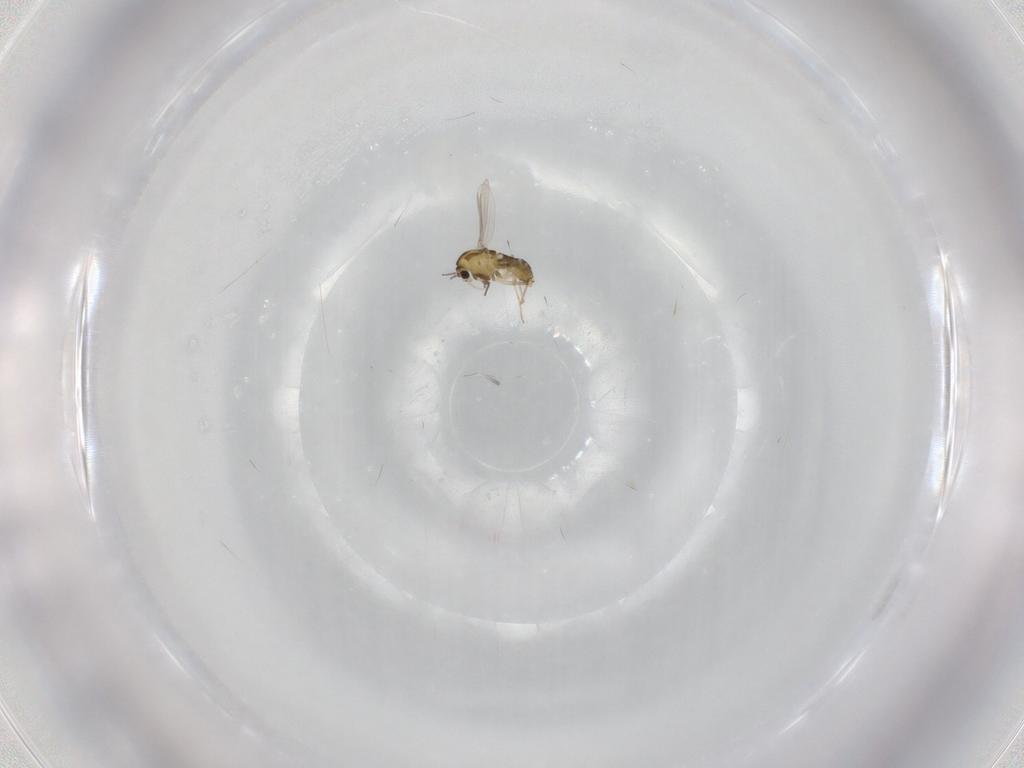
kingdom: Animalia
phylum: Arthropoda
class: Insecta
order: Diptera
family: Chironomidae
